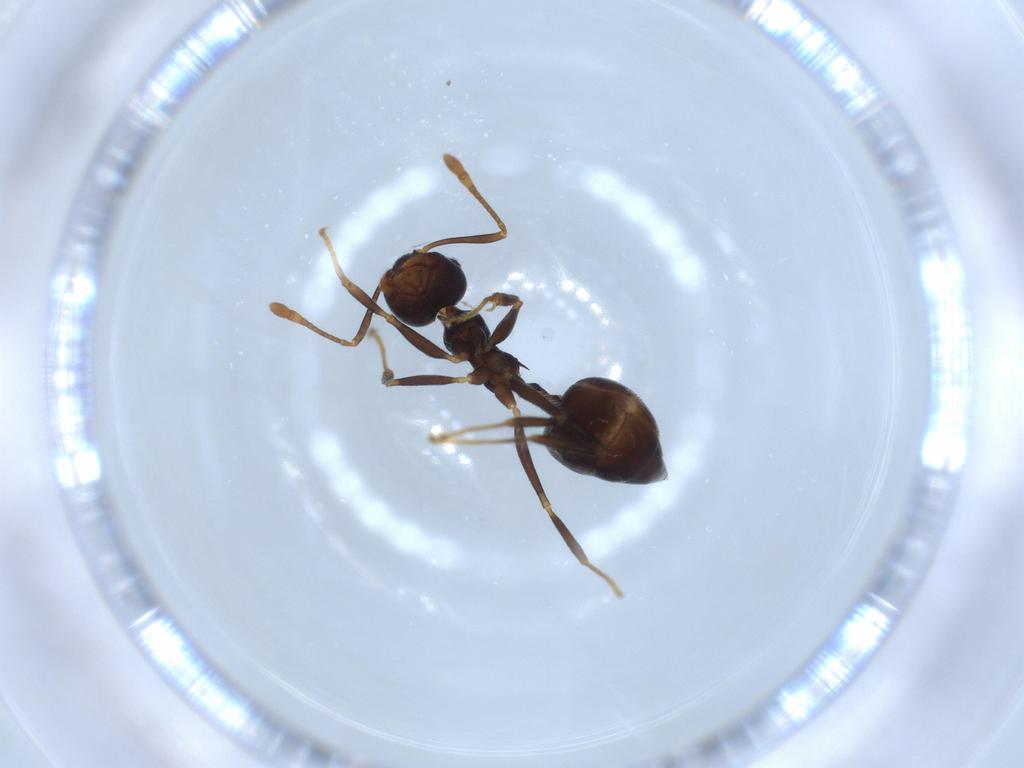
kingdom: Animalia
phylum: Arthropoda
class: Insecta
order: Hymenoptera
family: Formicidae
